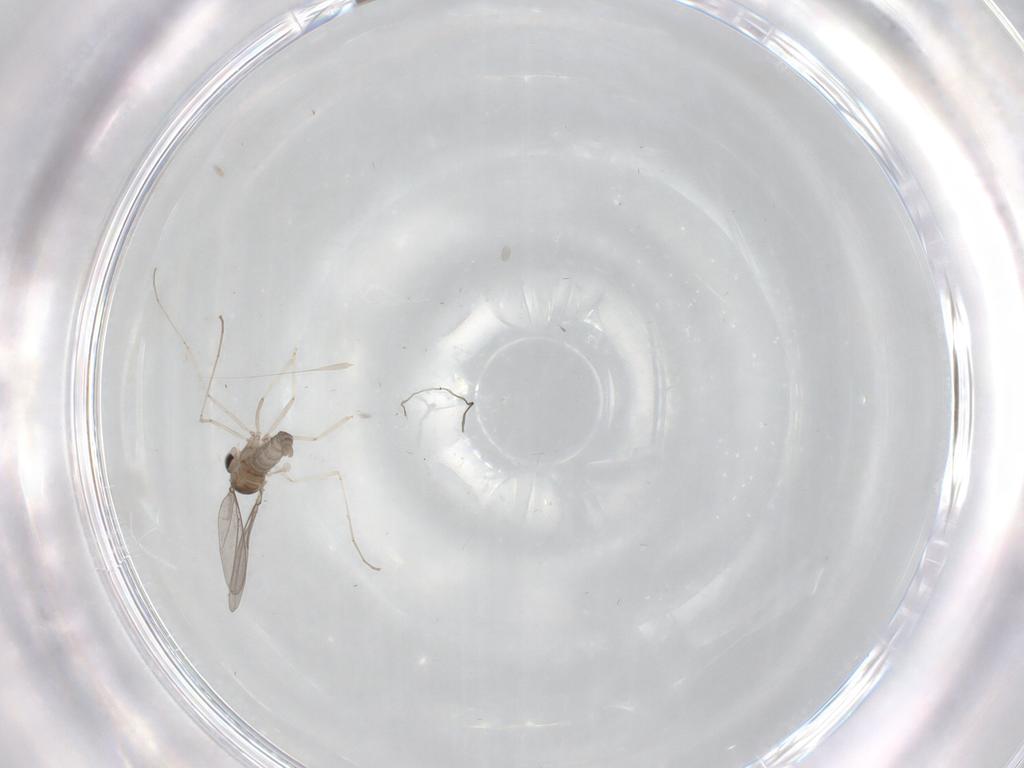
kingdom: Animalia
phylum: Arthropoda
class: Insecta
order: Diptera
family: Cecidomyiidae
